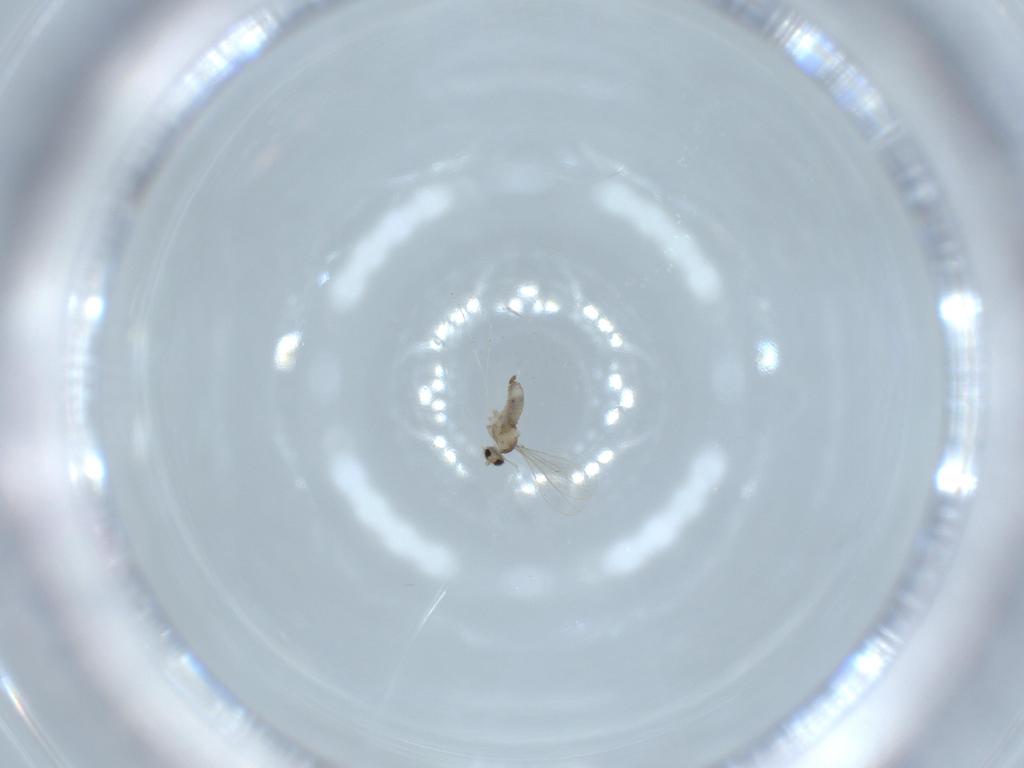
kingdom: Animalia
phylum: Arthropoda
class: Insecta
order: Diptera
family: Cecidomyiidae
